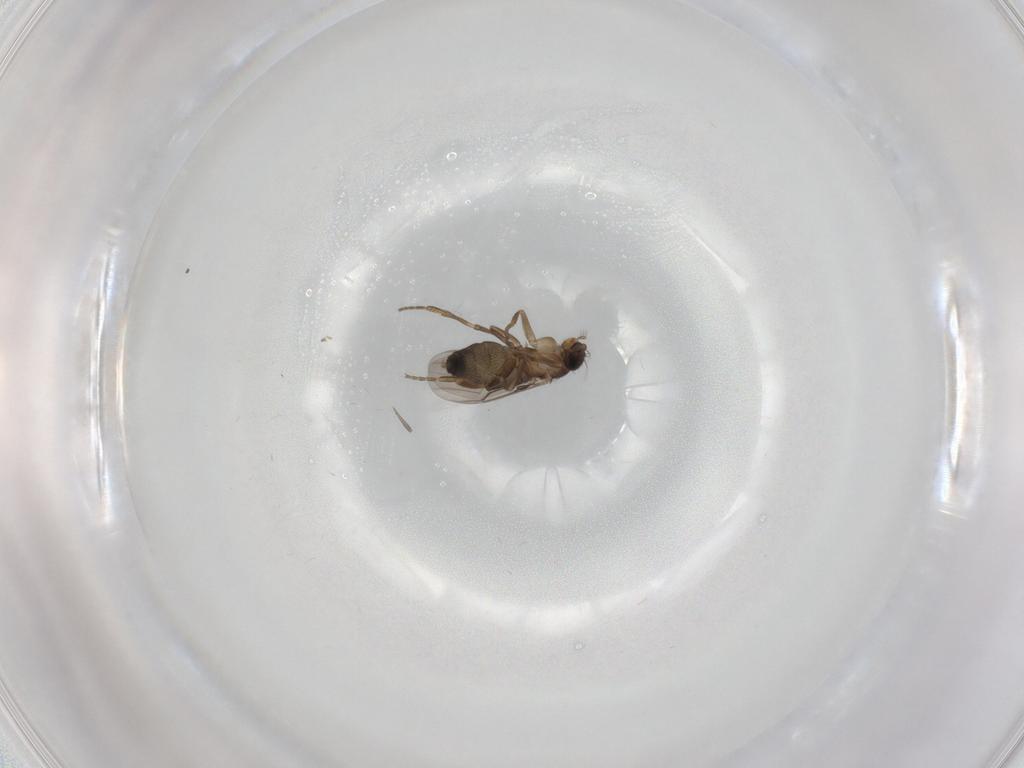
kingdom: Animalia
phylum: Arthropoda
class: Insecta
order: Diptera
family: Phoridae
